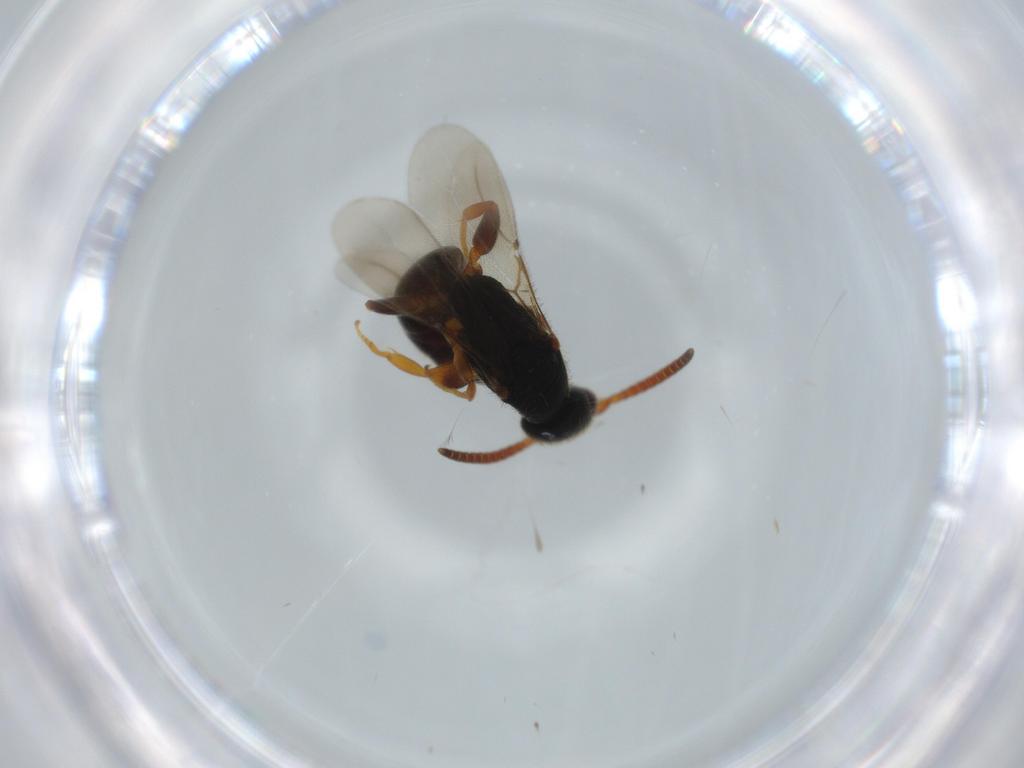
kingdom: Animalia
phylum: Arthropoda
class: Insecta
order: Hymenoptera
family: Bethylidae
